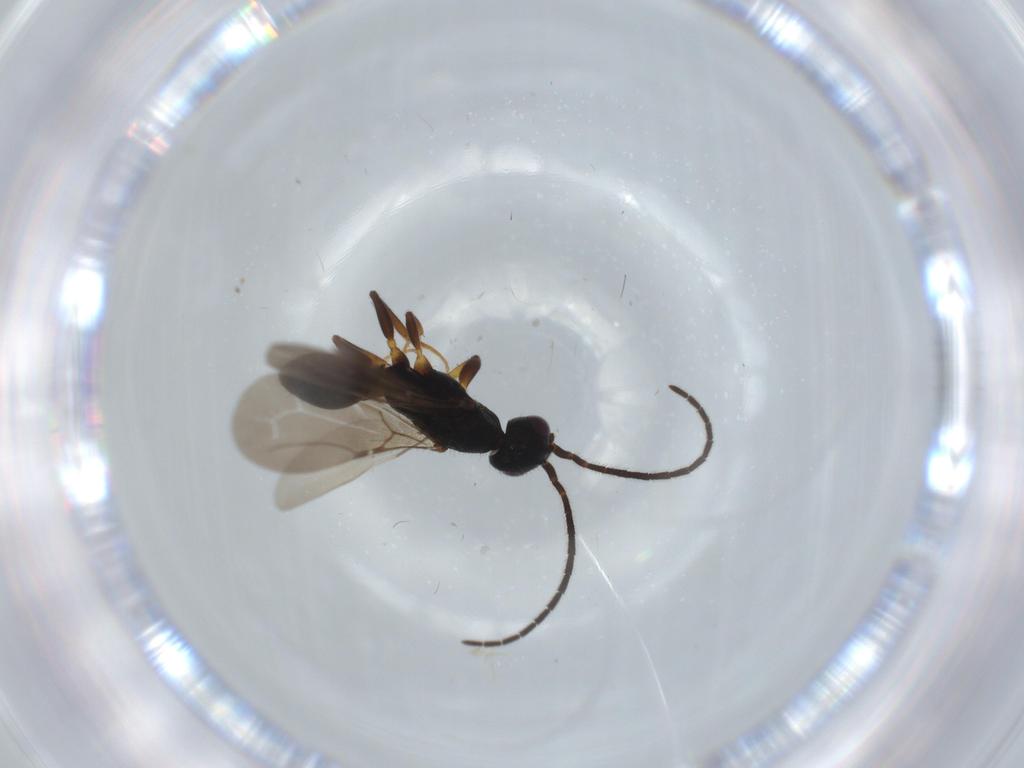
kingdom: Animalia
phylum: Arthropoda
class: Insecta
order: Hymenoptera
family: Bethylidae
